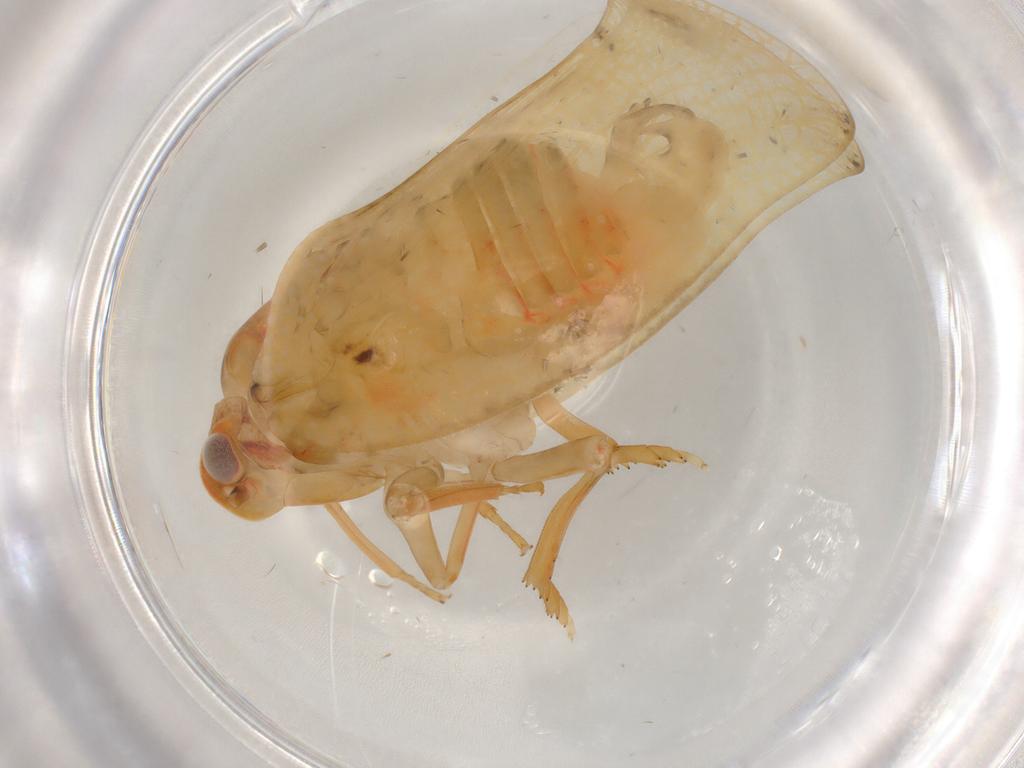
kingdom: Animalia
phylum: Arthropoda
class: Insecta
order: Hemiptera
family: Flatidae
